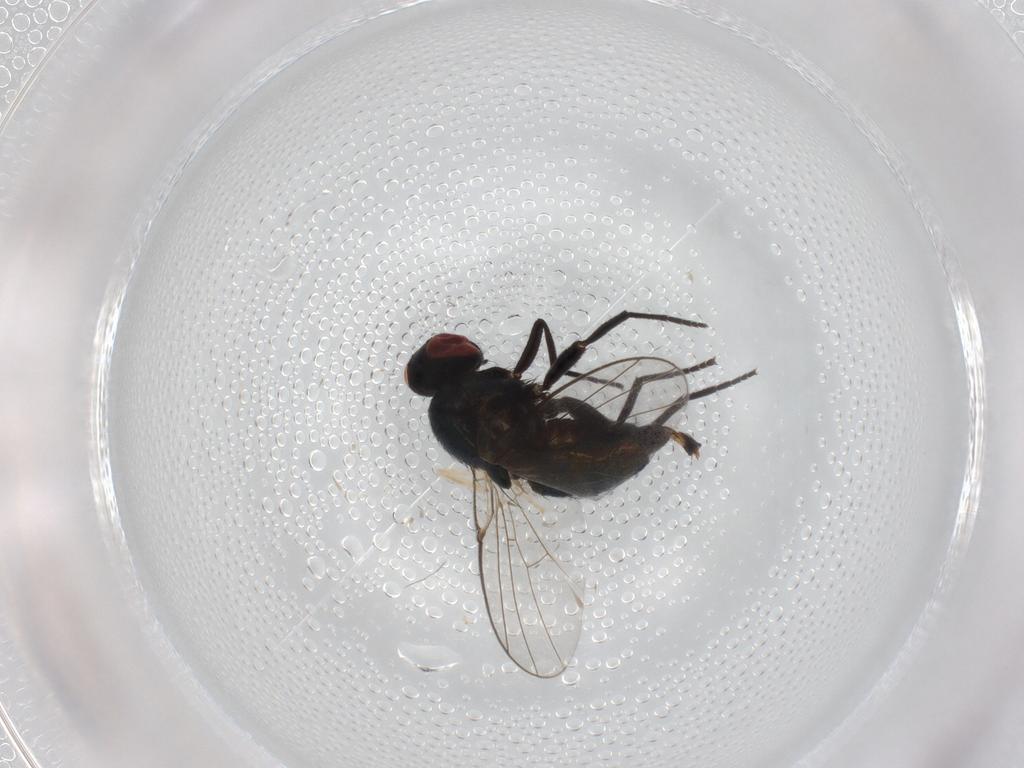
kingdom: Animalia
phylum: Arthropoda
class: Insecta
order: Diptera
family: Agromyzidae
